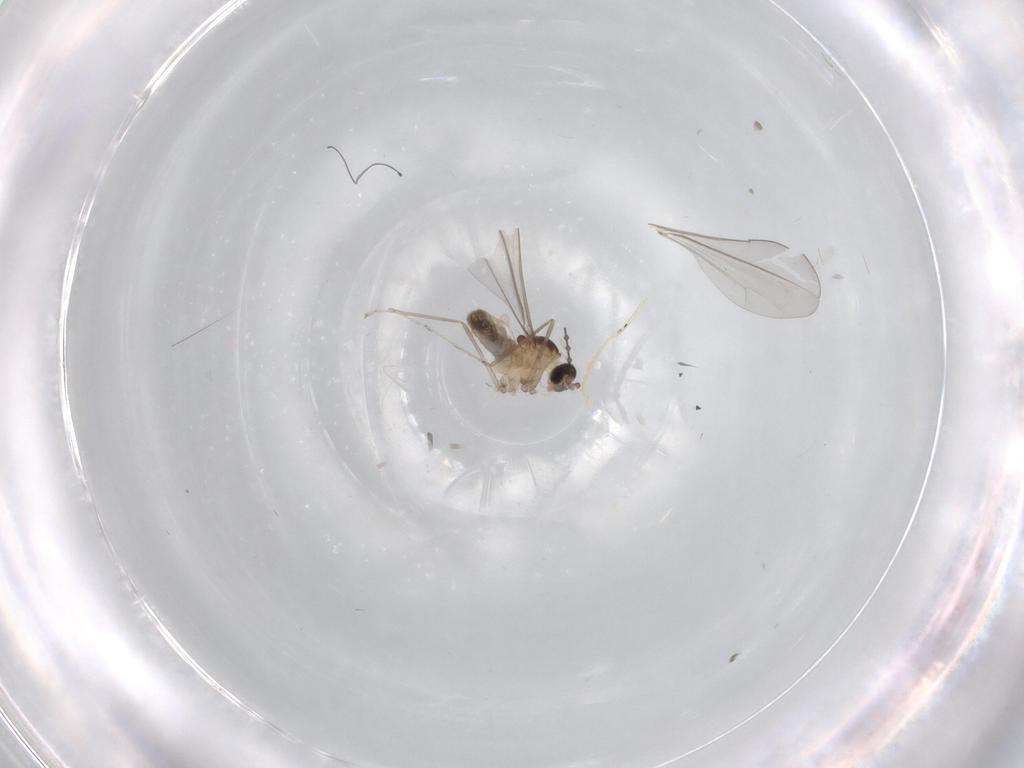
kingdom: Animalia
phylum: Arthropoda
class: Insecta
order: Diptera
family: Cecidomyiidae
